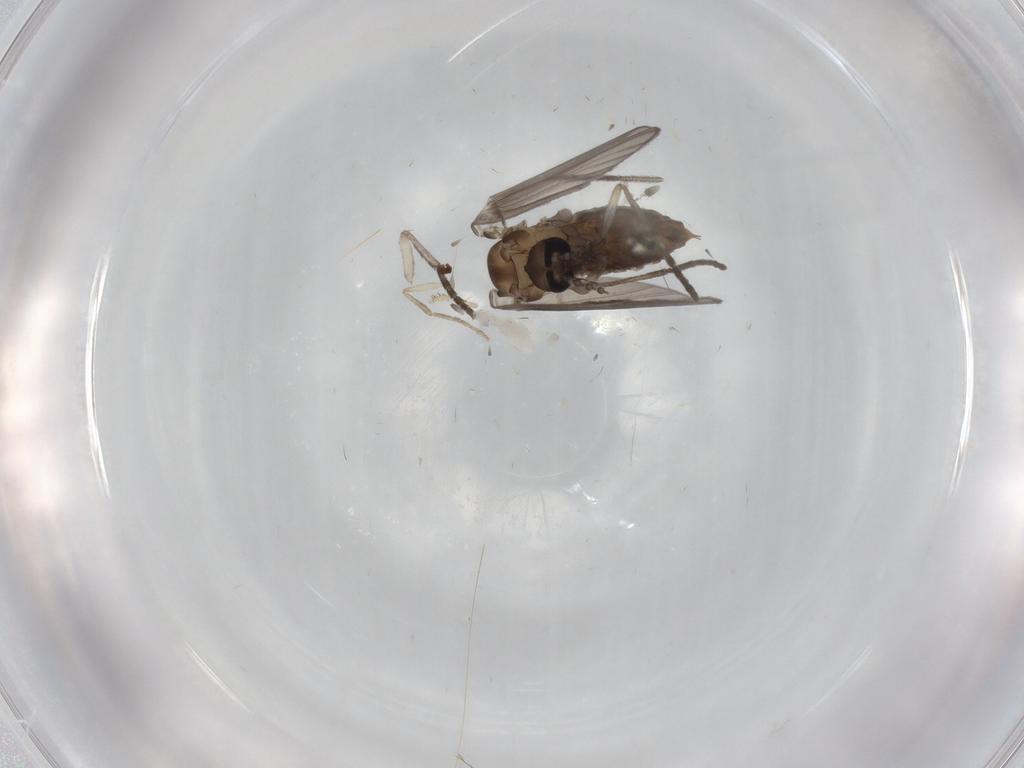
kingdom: Animalia
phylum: Arthropoda
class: Insecta
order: Diptera
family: Psychodidae
